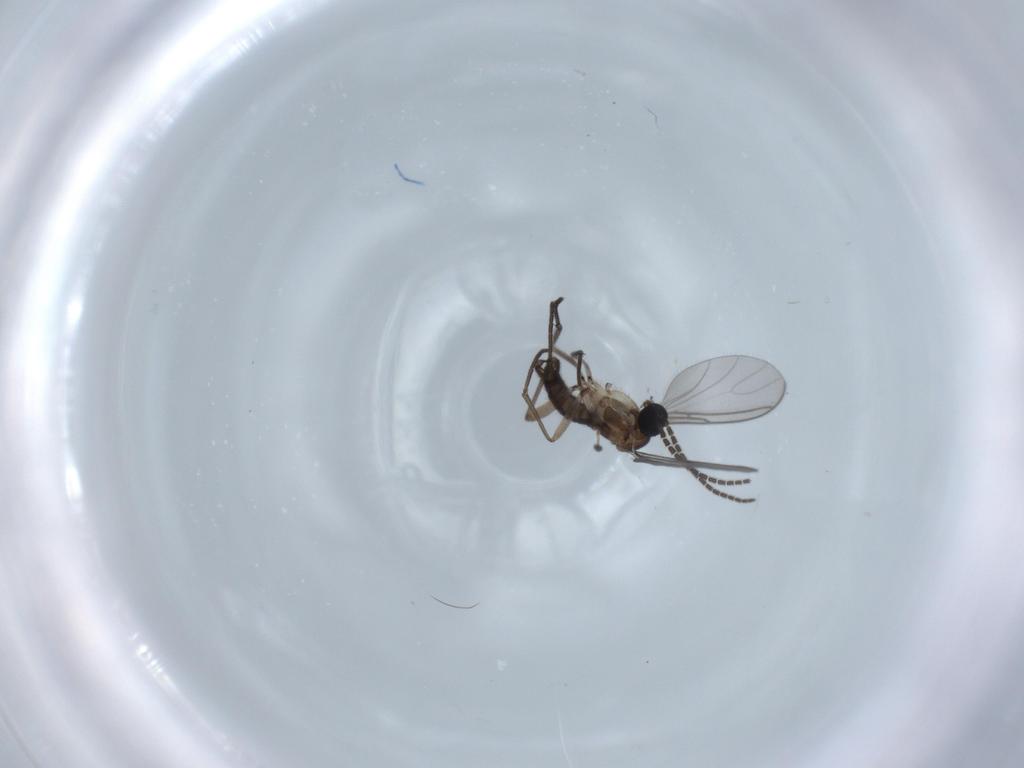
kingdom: Animalia
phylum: Arthropoda
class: Insecta
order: Diptera
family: Sciaridae
